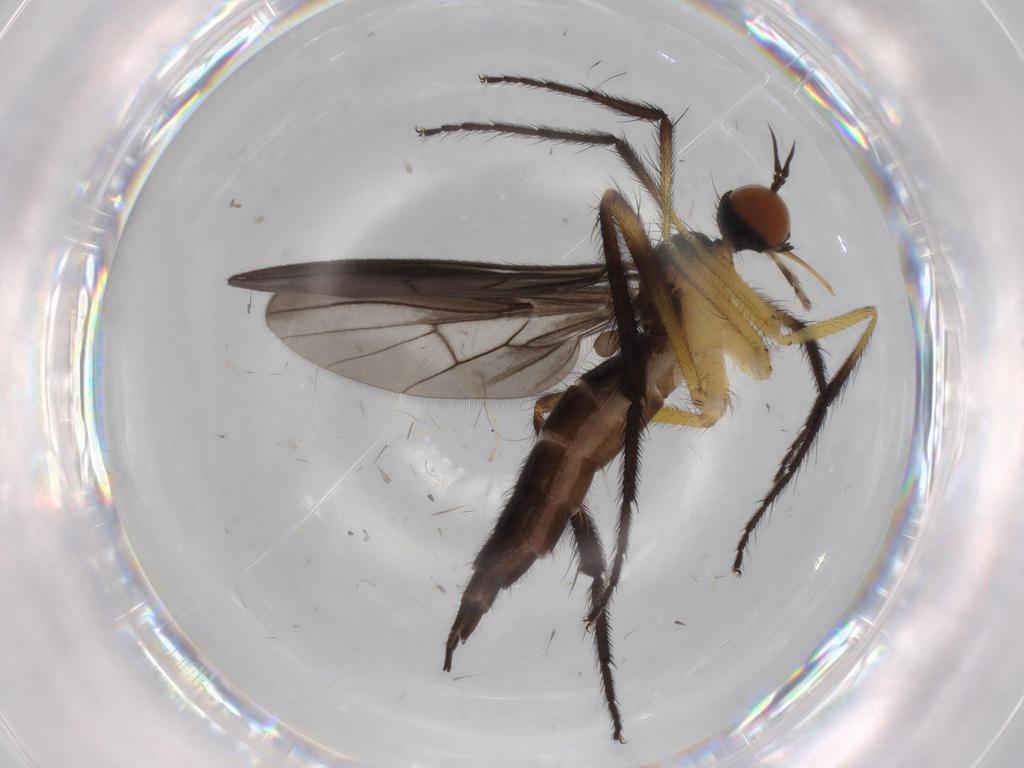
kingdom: Animalia
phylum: Arthropoda
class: Insecta
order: Diptera
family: Empididae
